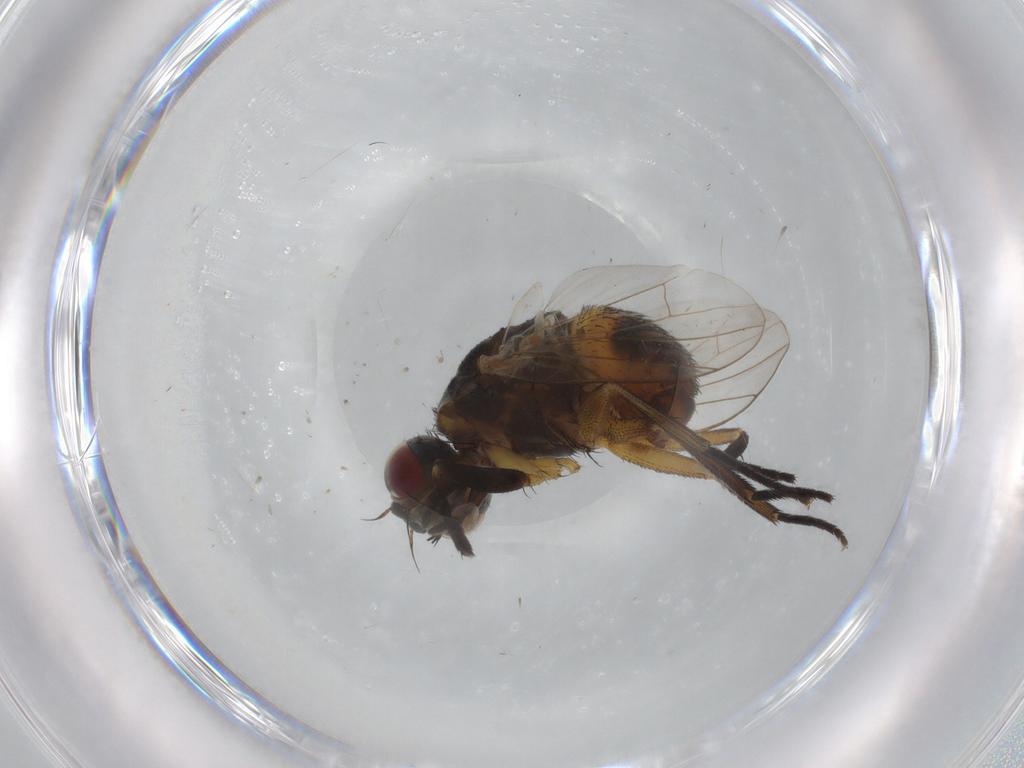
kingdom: Animalia
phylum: Arthropoda
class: Insecta
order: Diptera
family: Muscidae
